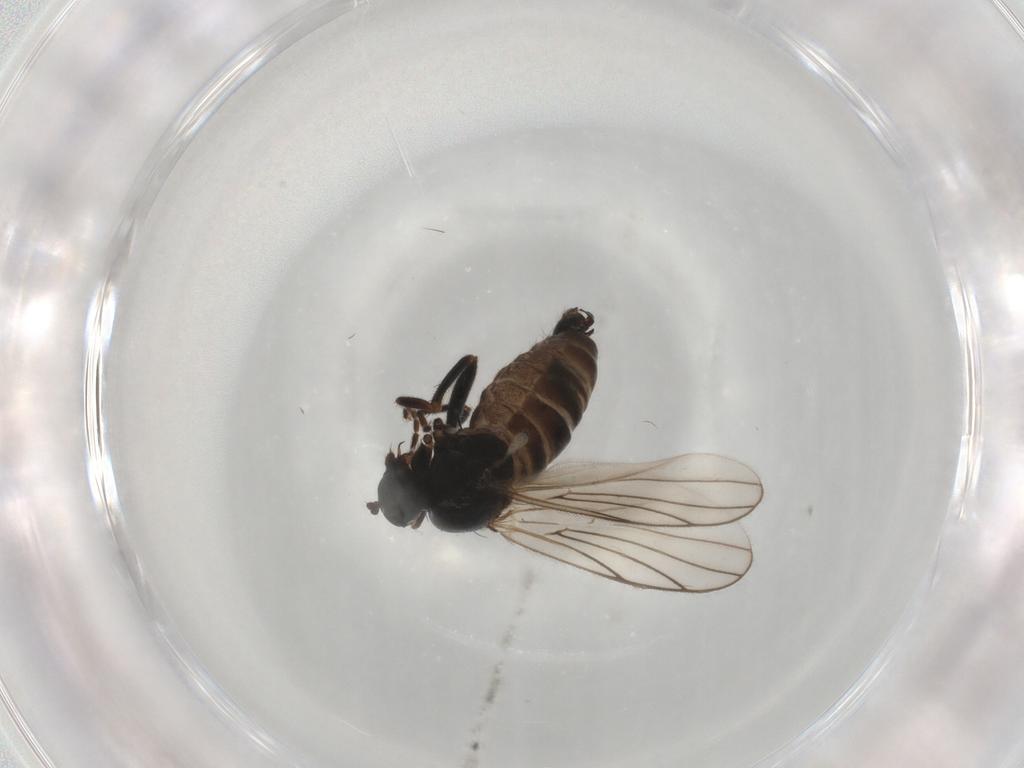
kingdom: Animalia
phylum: Arthropoda
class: Insecta
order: Diptera
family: Hybotidae
